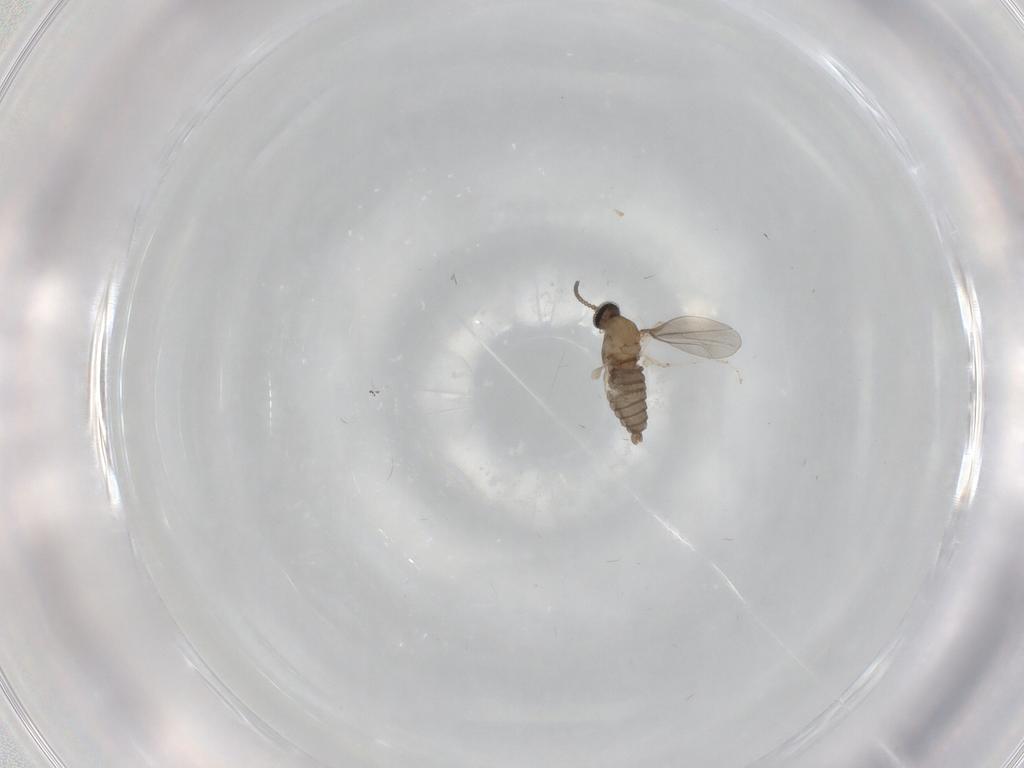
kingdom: Animalia
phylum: Arthropoda
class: Insecta
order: Diptera
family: Cecidomyiidae
